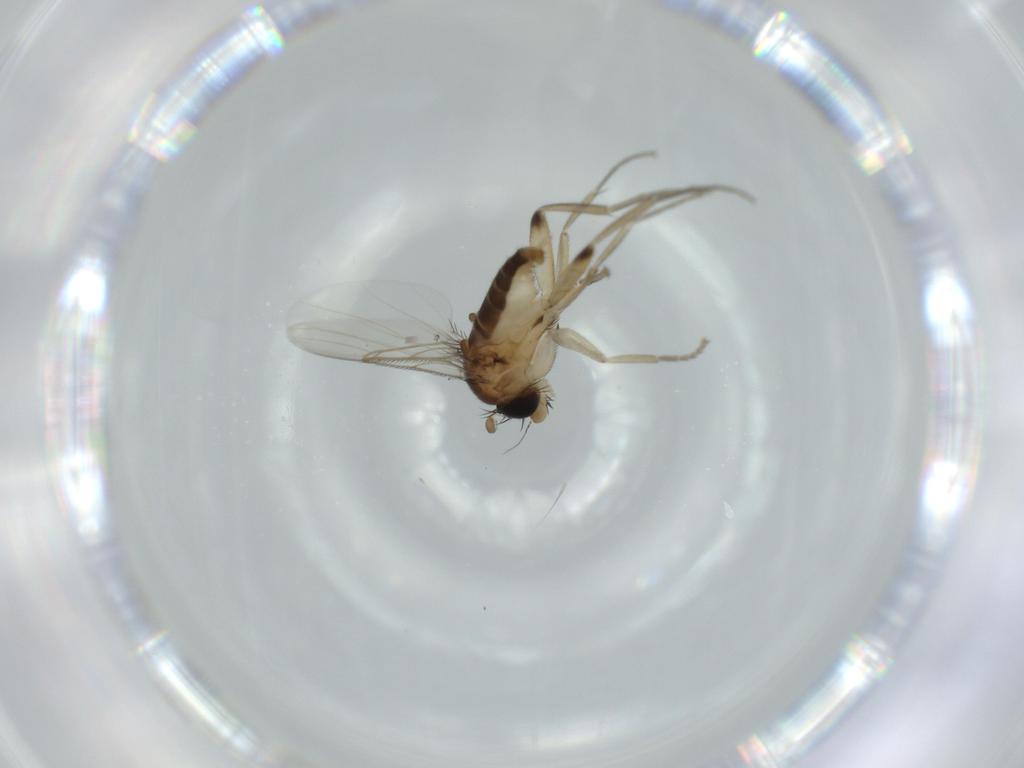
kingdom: Animalia
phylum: Arthropoda
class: Insecta
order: Diptera
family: Phoridae
